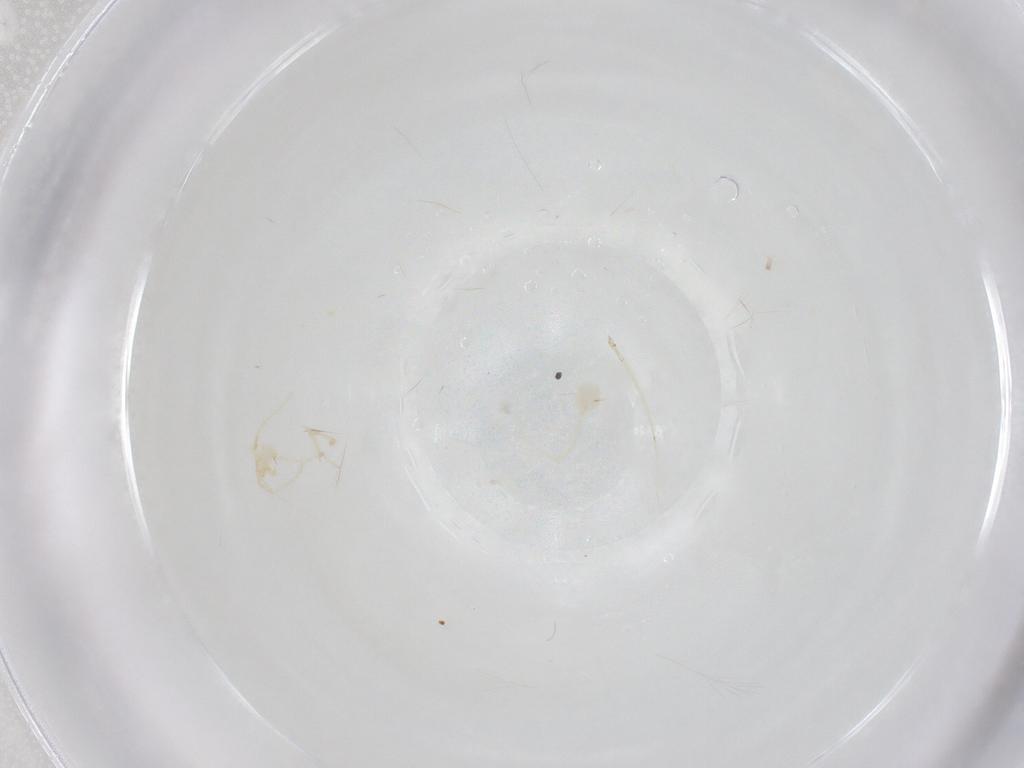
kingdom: Animalia
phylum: Arthropoda
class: Arachnida
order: Trombidiformes
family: Erythraeidae
